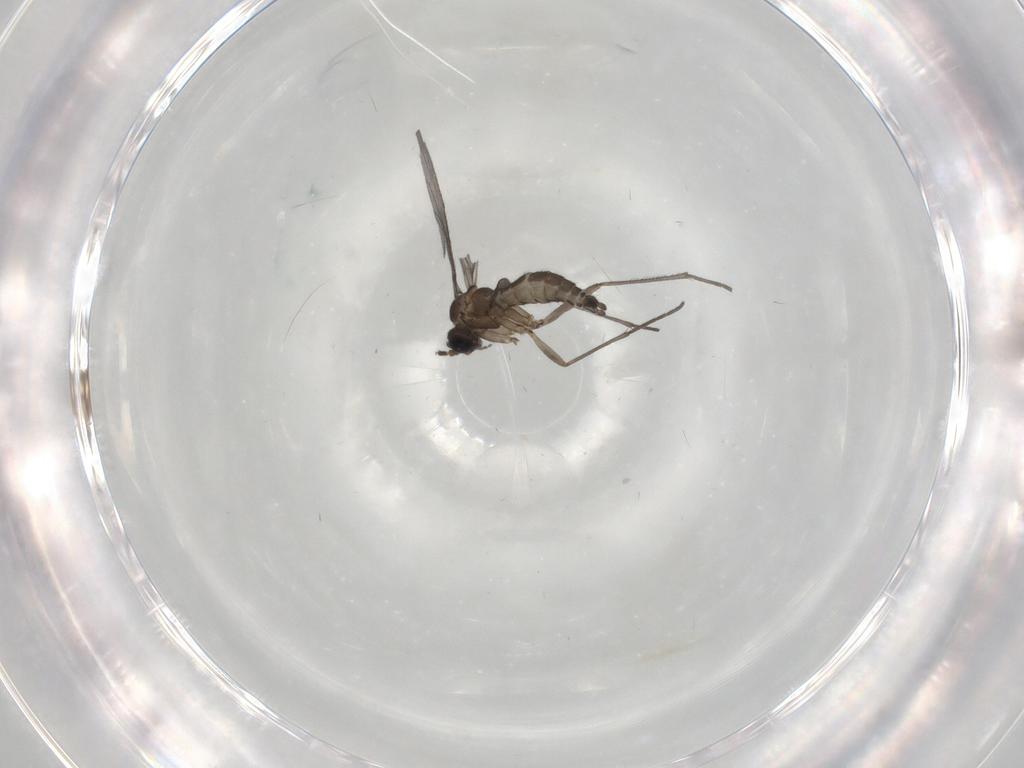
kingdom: Animalia
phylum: Arthropoda
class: Insecta
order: Diptera
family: Sciaridae
